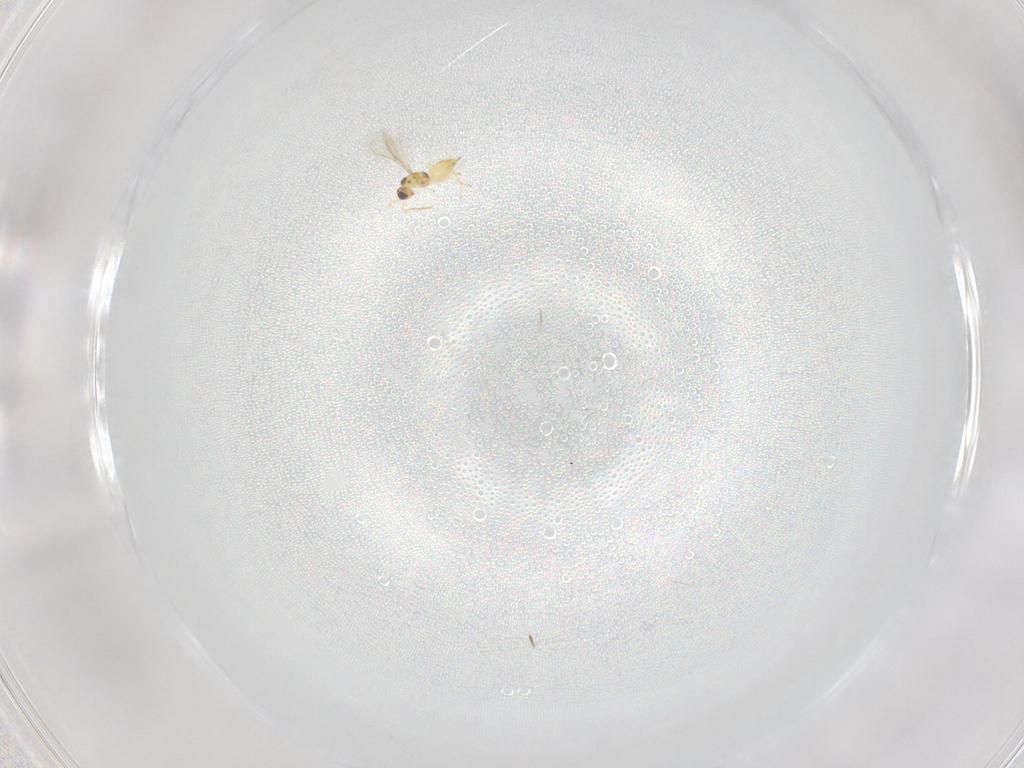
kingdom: Animalia
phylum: Arthropoda
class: Insecta
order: Hymenoptera
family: Mymaridae
